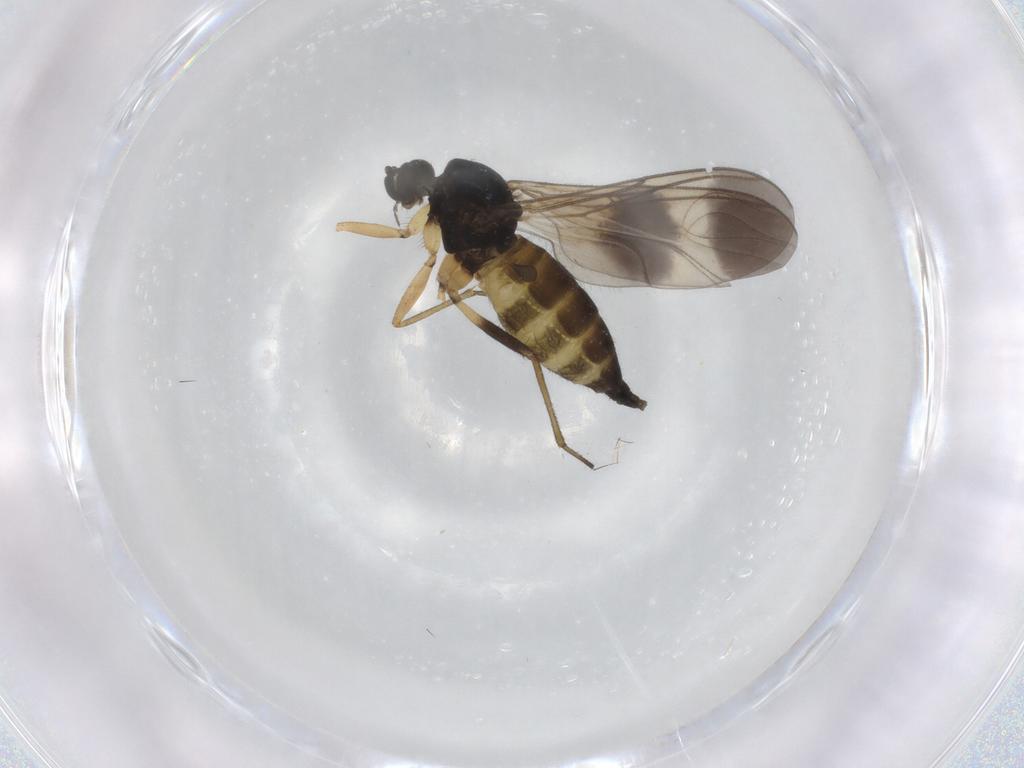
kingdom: Animalia
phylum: Arthropoda
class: Insecta
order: Diptera
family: Sciaridae
